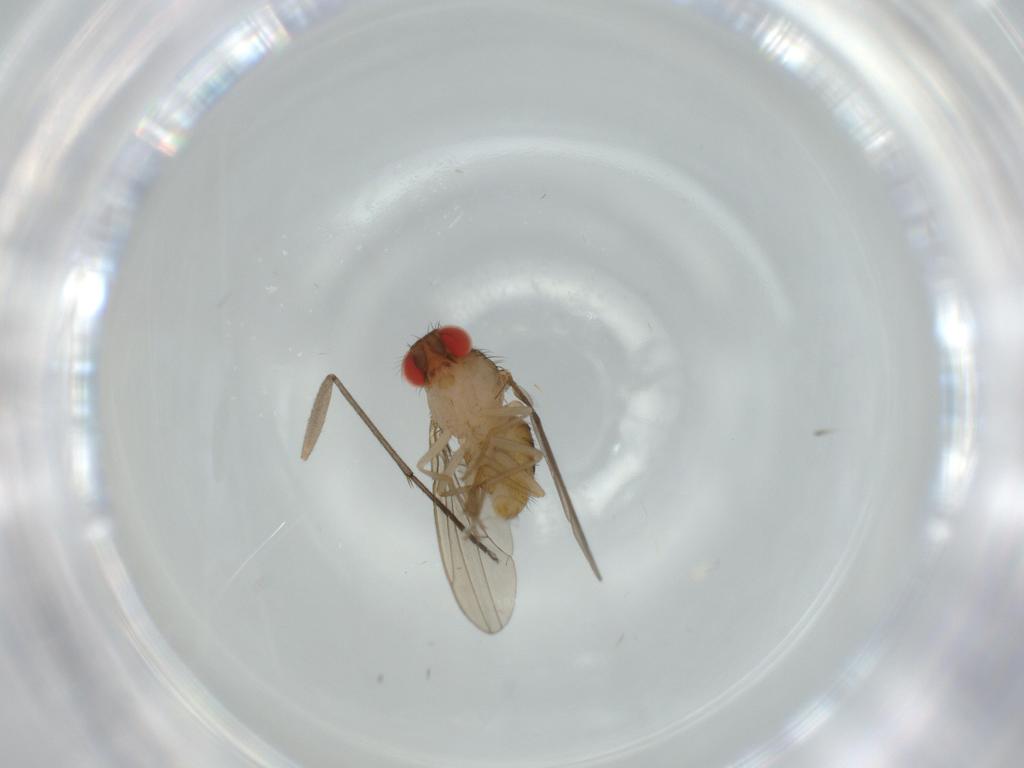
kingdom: Animalia
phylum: Arthropoda
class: Insecta
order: Diptera
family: Drosophilidae
